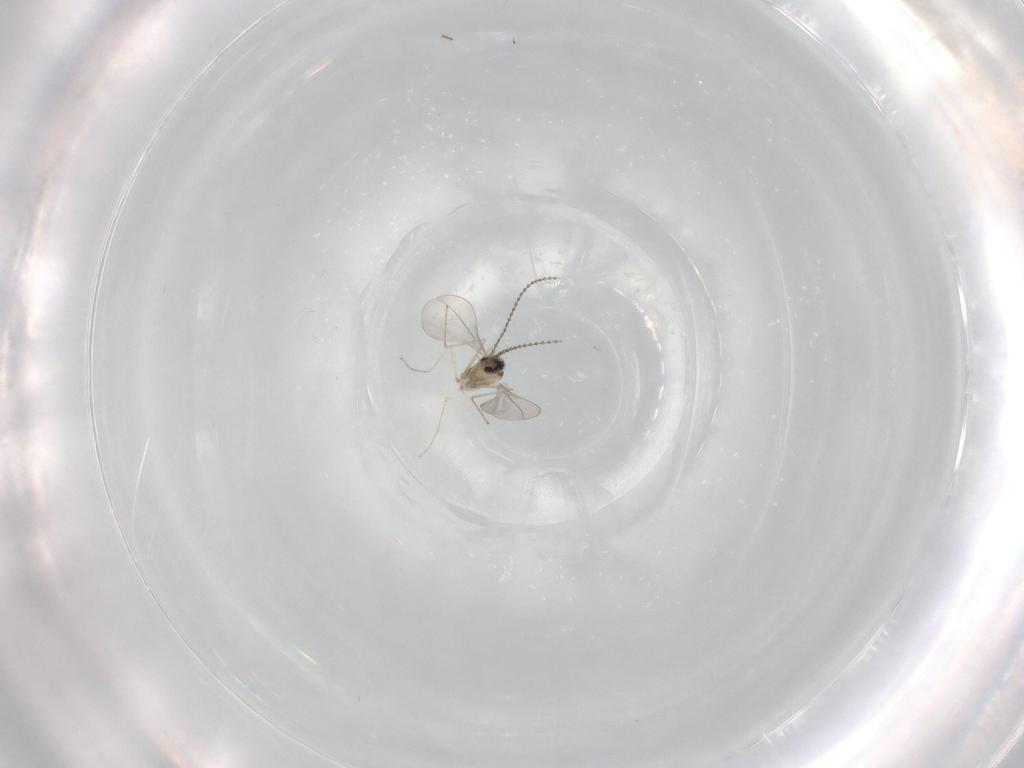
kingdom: Animalia
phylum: Arthropoda
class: Insecta
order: Diptera
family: Cecidomyiidae
